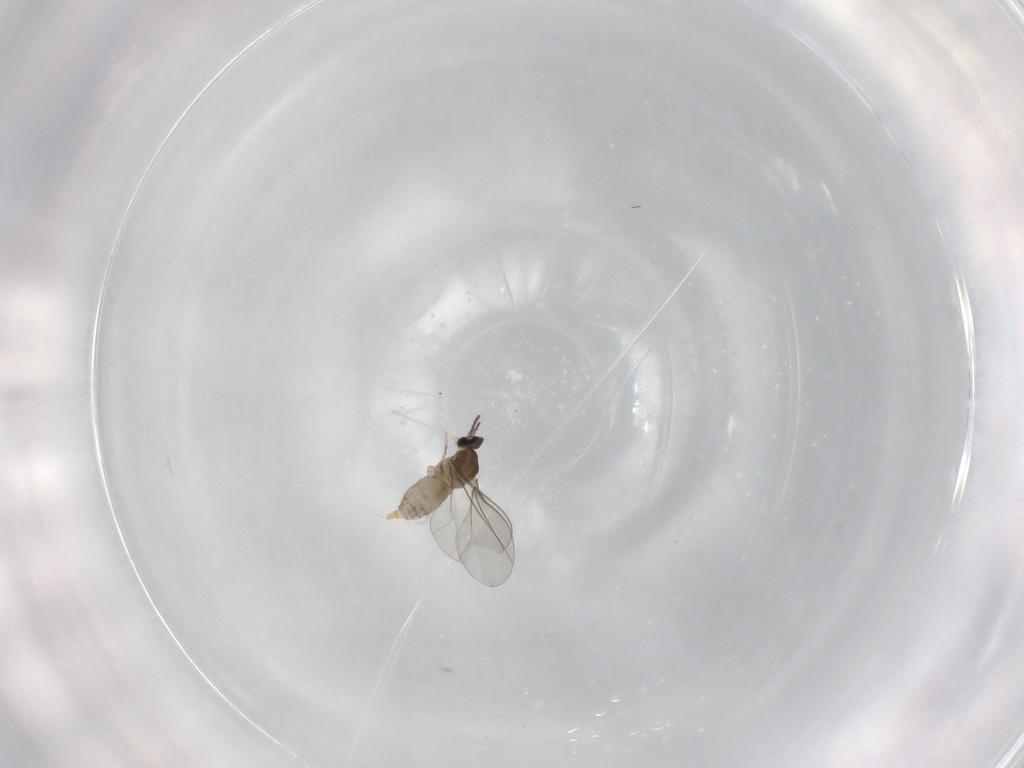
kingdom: Animalia
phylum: Arthropoda
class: Insecta
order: Diptera
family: Cecidomyiidae
